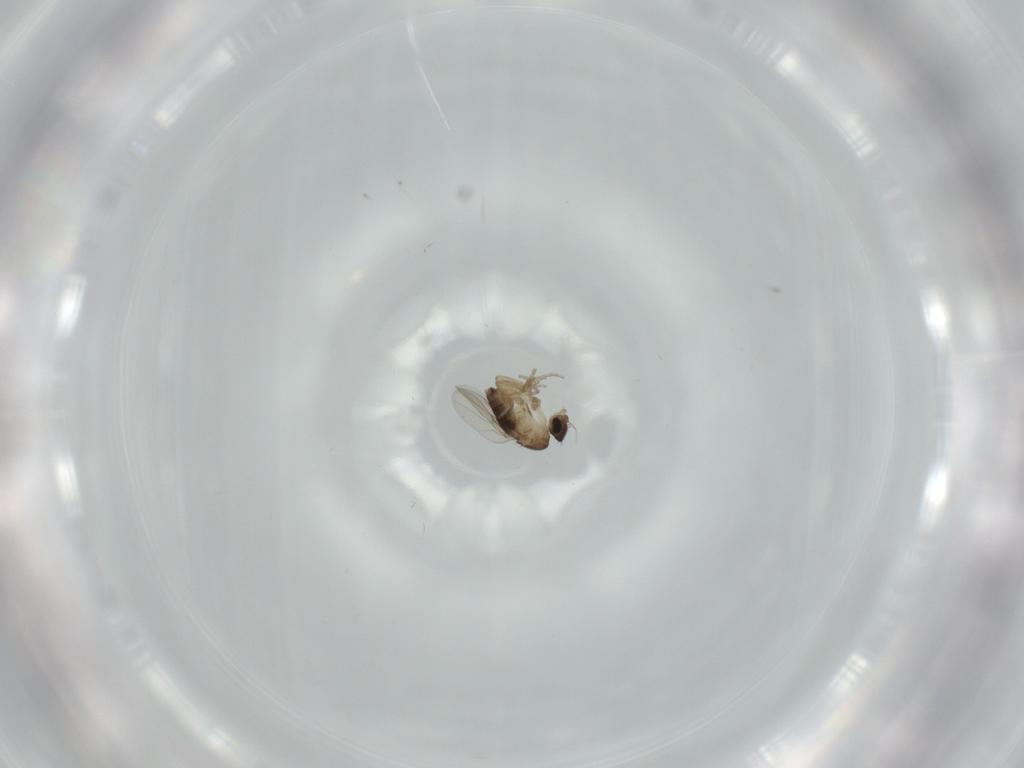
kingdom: Animalia
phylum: Arthropoda
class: Insecta
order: Diptera
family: Phoridae
